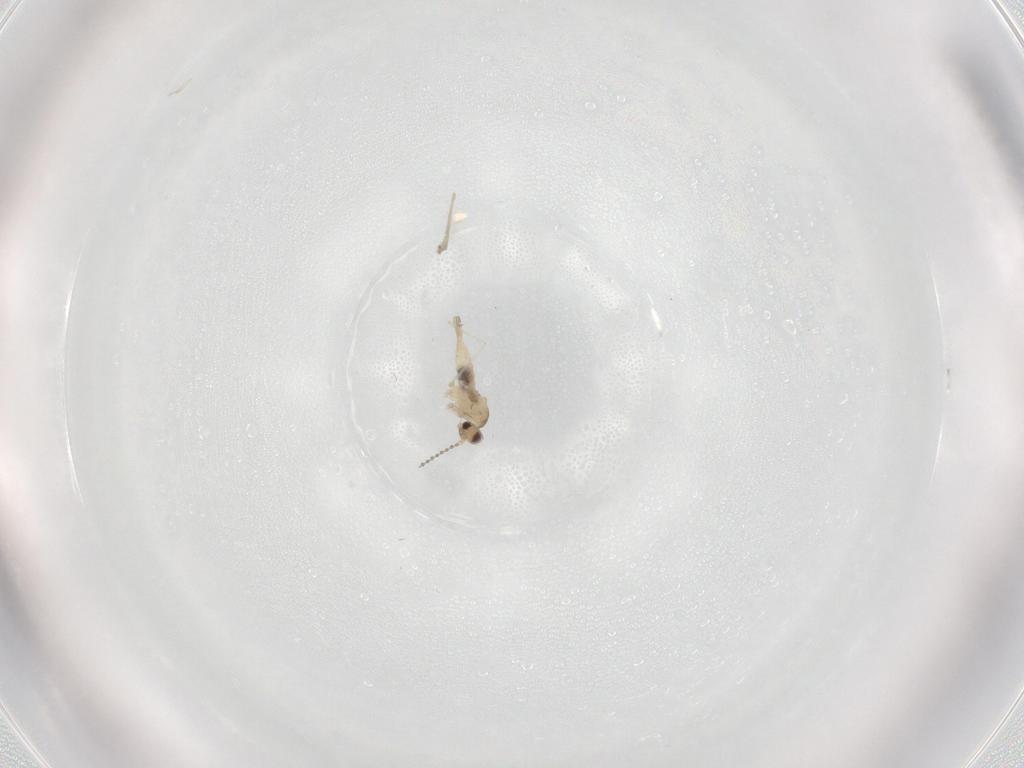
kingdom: Animalia
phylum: Arthropoda
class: Insecta
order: Diptera
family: Cecidomyiidae
